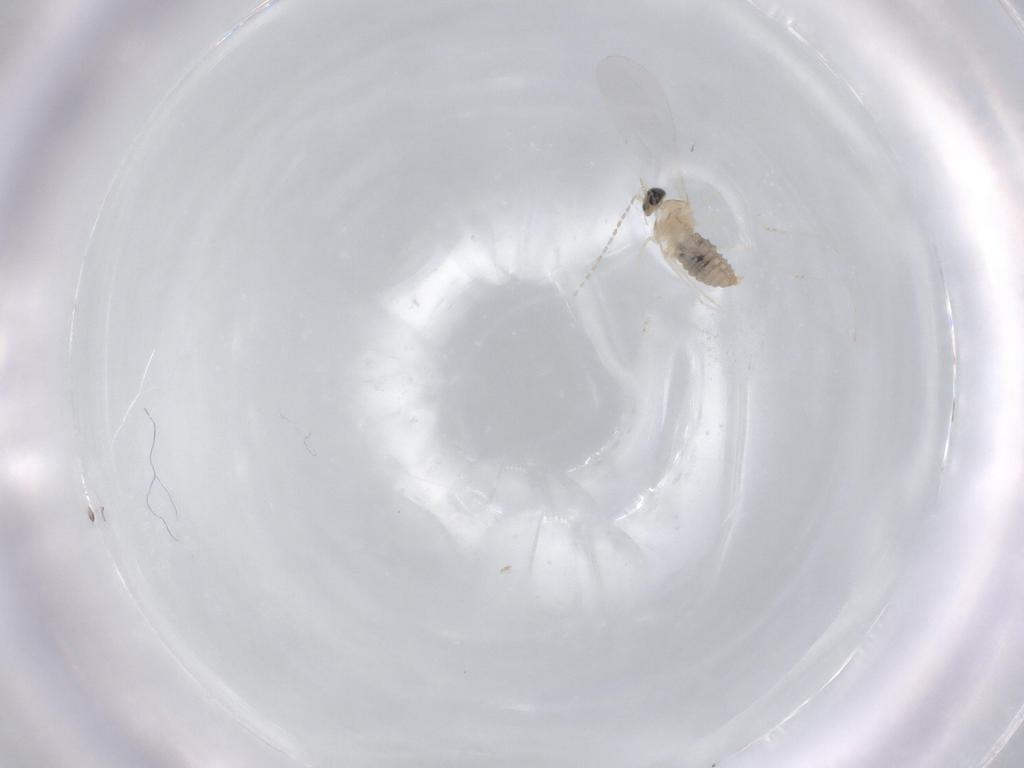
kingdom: Animalia
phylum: Arthropoda
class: Insecta
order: Diptera
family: Cecidomyiidae
